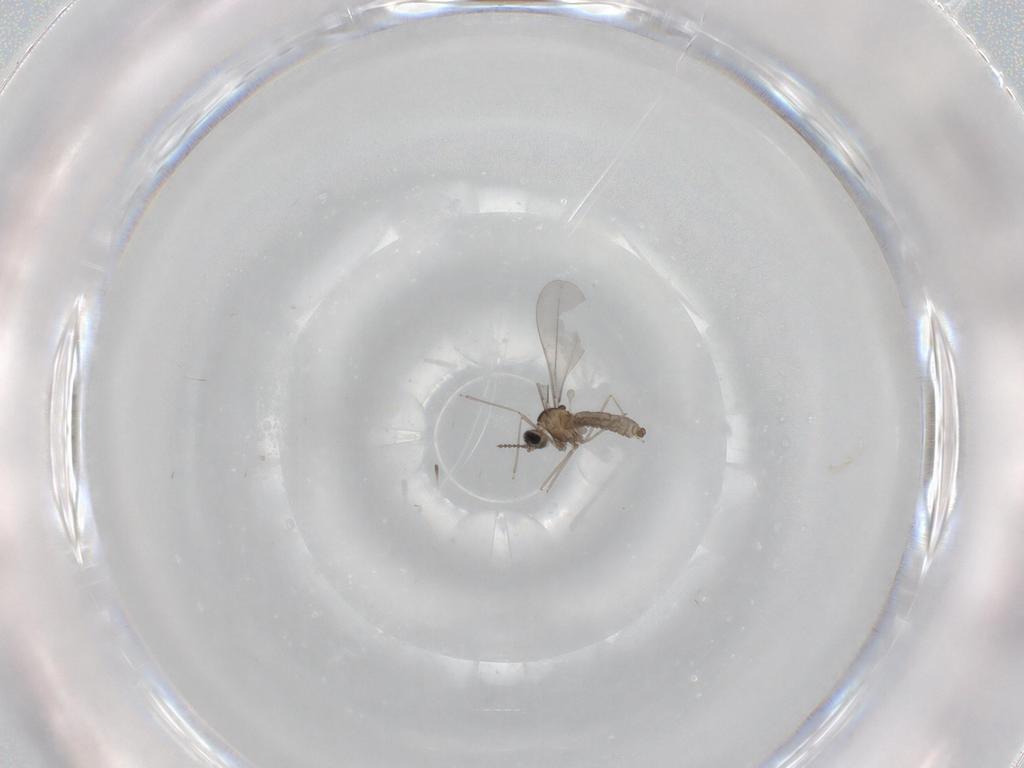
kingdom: Animalia
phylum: Arthropoda
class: Insecta
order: Diptera
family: Cecidomyiidae
